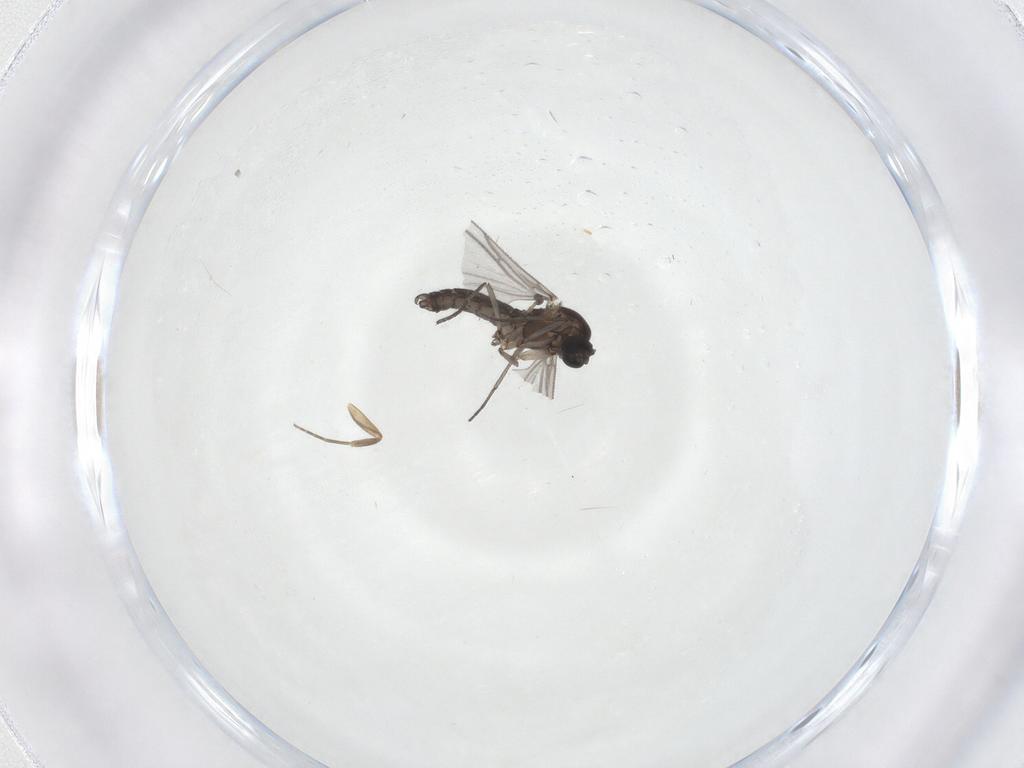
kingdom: Animalia
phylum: Arthropoda
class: Insecta
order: Diptera
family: Phoridae
